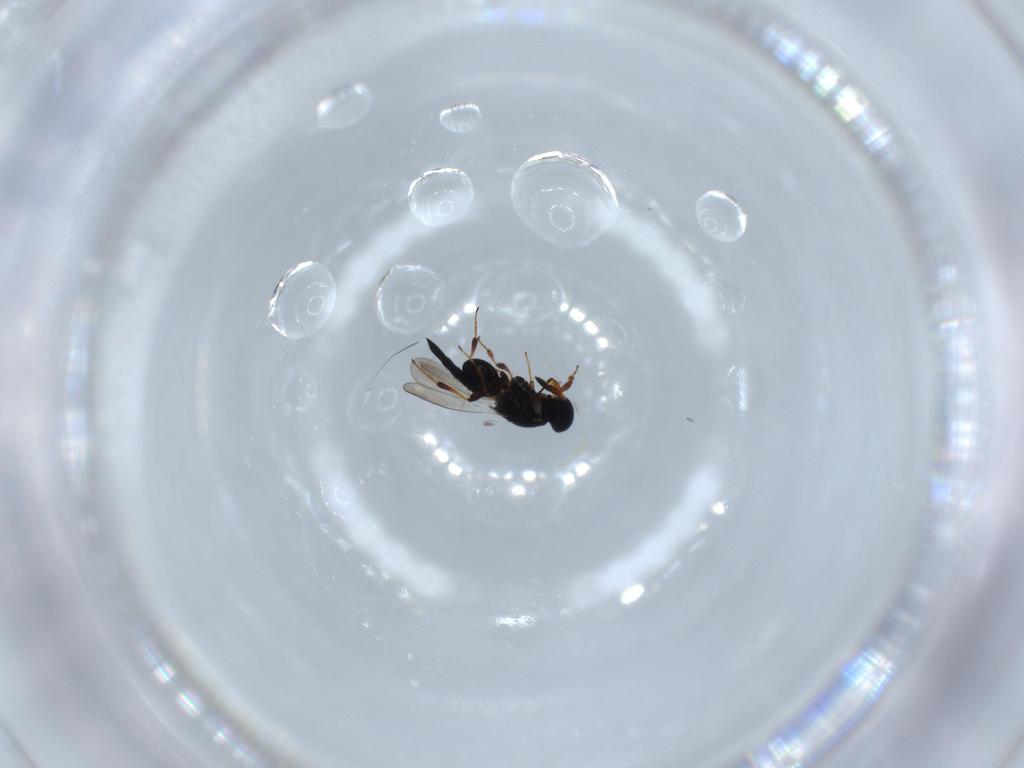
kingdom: Animalia
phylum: Arthropoda
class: Insecta
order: Hymenoptera
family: Platygastridae
